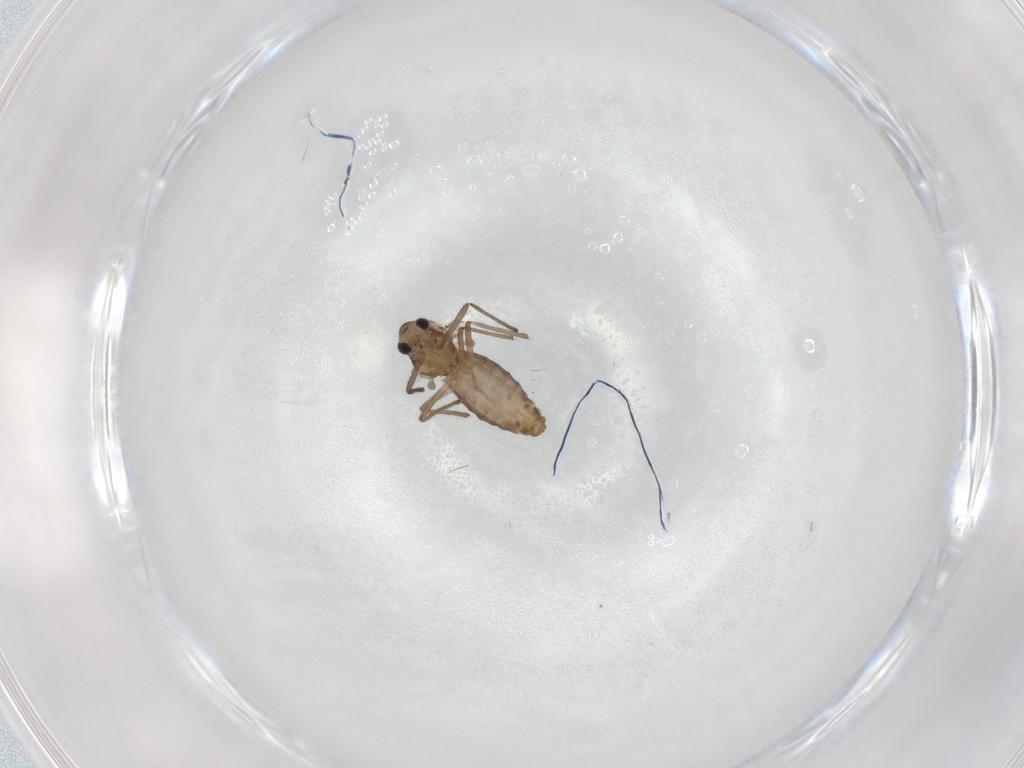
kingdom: Animalia
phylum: Arthropoda
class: Insecta
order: Diptera
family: Chironomidae
